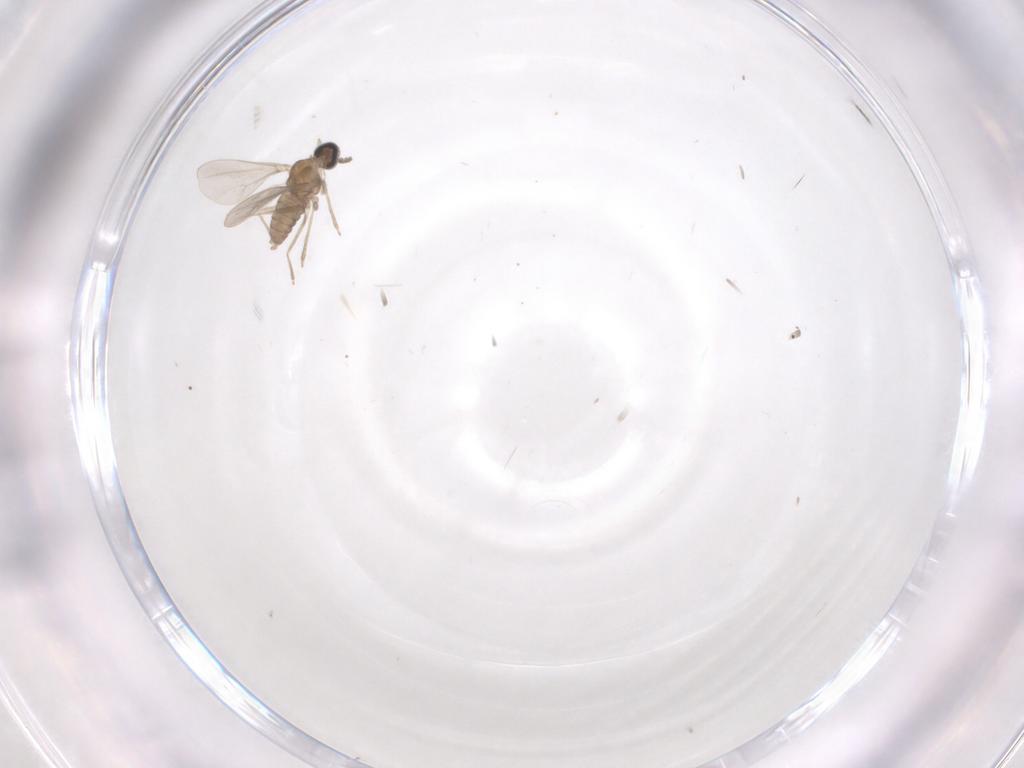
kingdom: Animalia
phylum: Arthropoda
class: Insecta
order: Diptera
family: Cecidomyiidae
